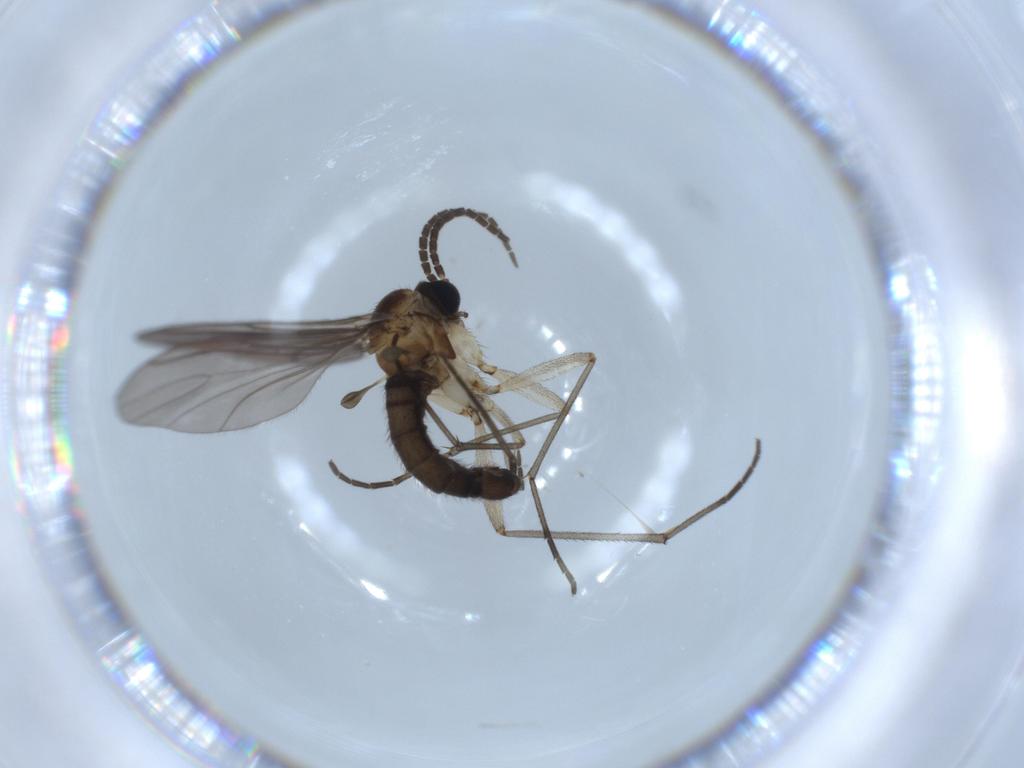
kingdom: Animalia
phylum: Arthropoda
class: Insecta
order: Diptera
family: Sciaridae
